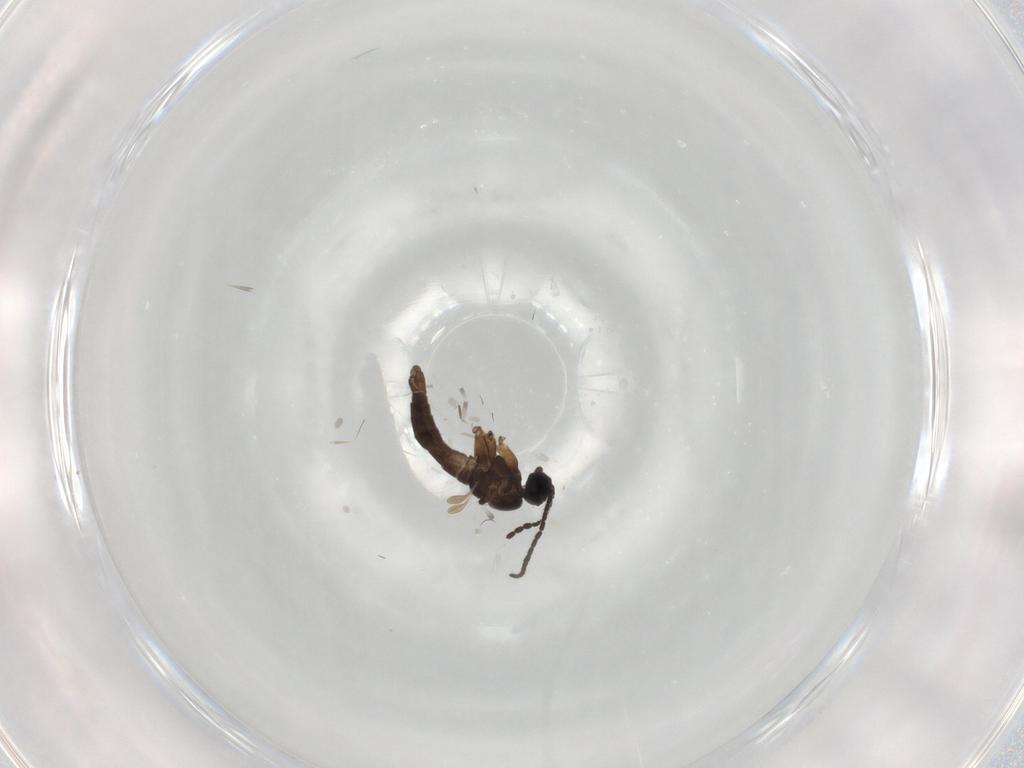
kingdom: Animalia
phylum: Arthropoda
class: Insecta
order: Diptera
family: Sciaridae
